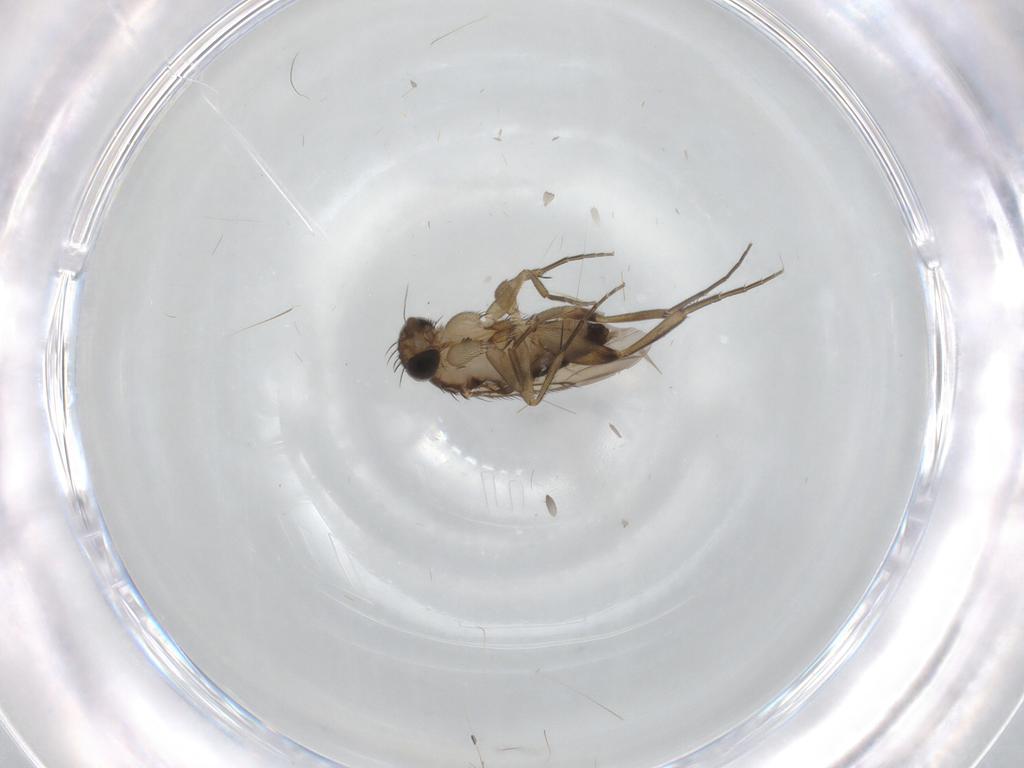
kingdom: Animalia
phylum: Arthropoda
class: Insecta
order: Diptera
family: Phoridae
